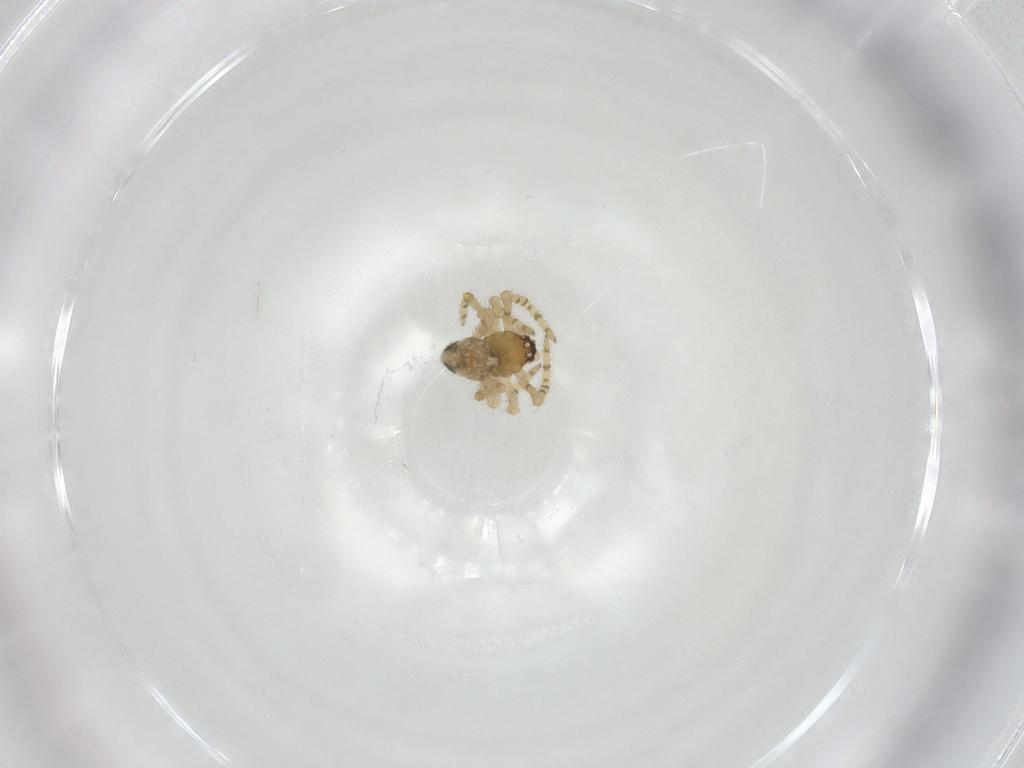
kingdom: Animalia
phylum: Arthropoda
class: Arachnida
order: Araneae
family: Theridiidae
